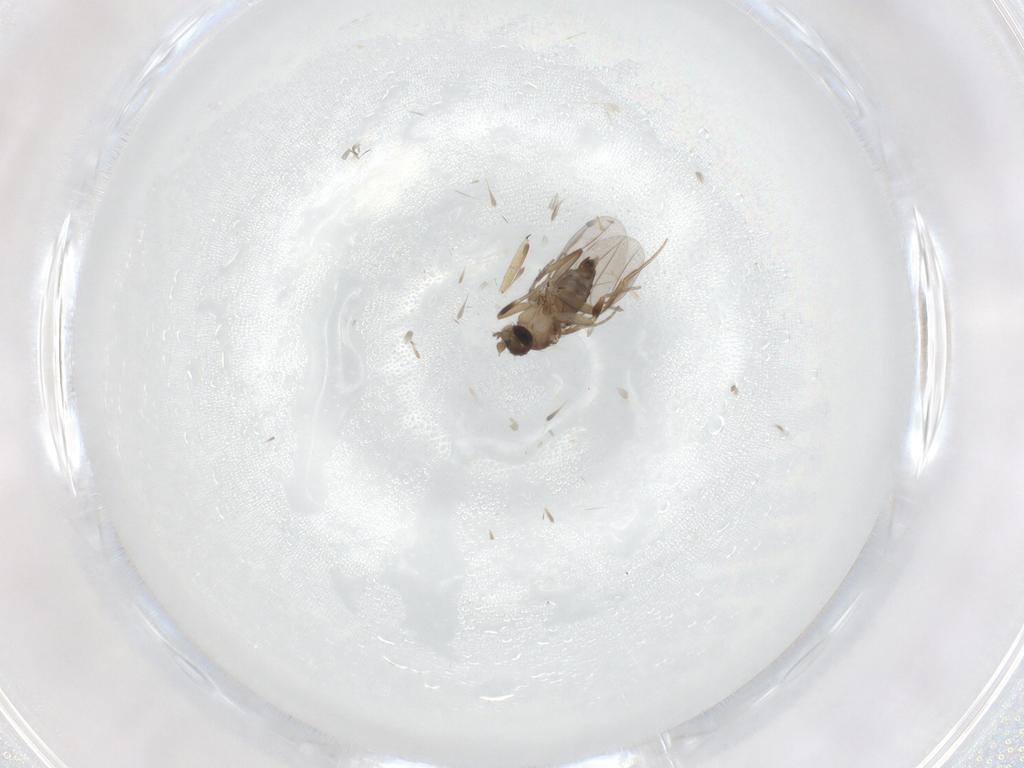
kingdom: Animalia
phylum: Arthropoda
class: Insecta
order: Diptera
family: Phoridae
